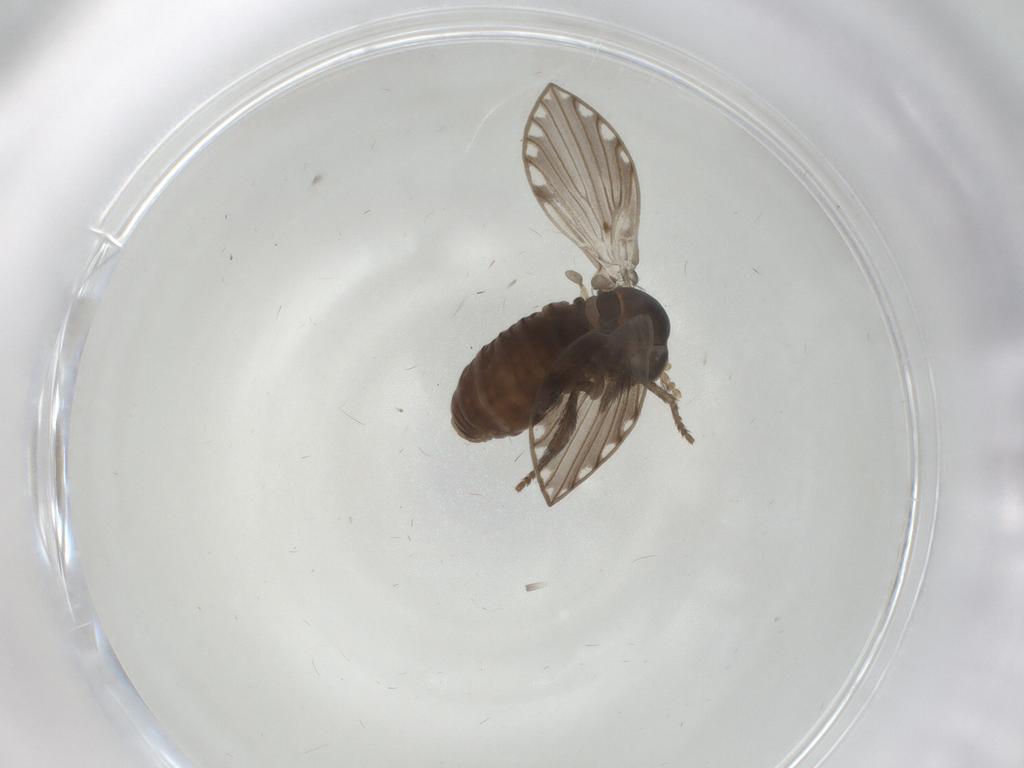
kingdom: Animalia
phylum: Arthropoda
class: Insecta
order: Diptera
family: Psychodidae
